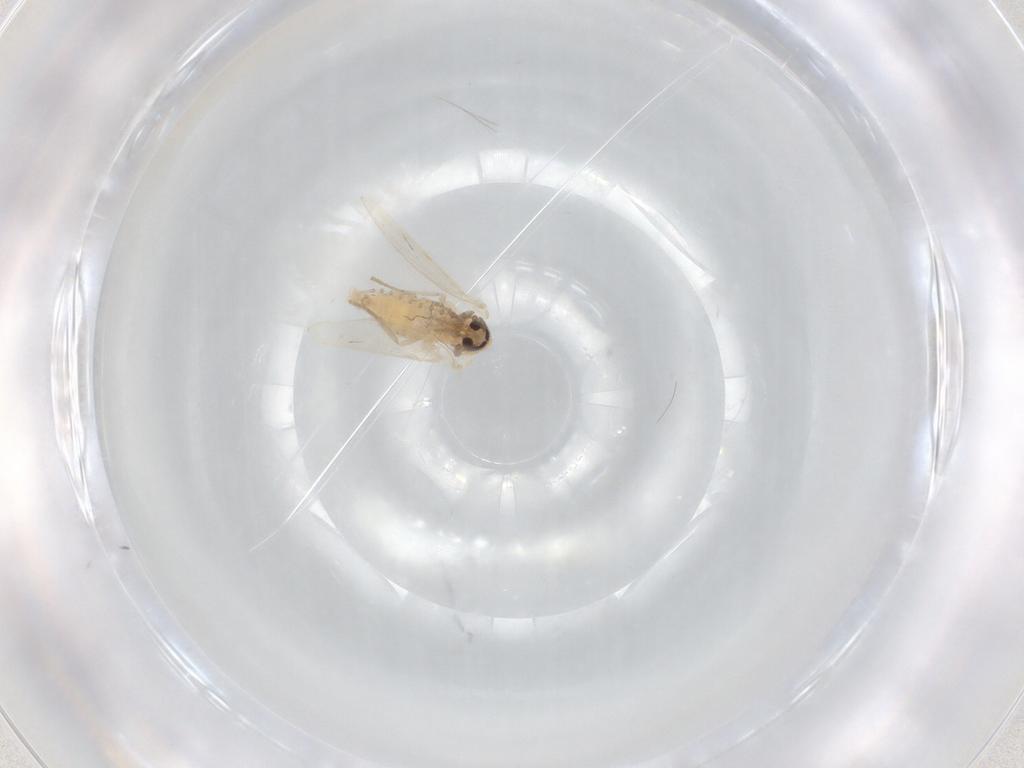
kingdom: Animalia
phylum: Arthropoda
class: Insecta
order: Diptera
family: Psychodidae
